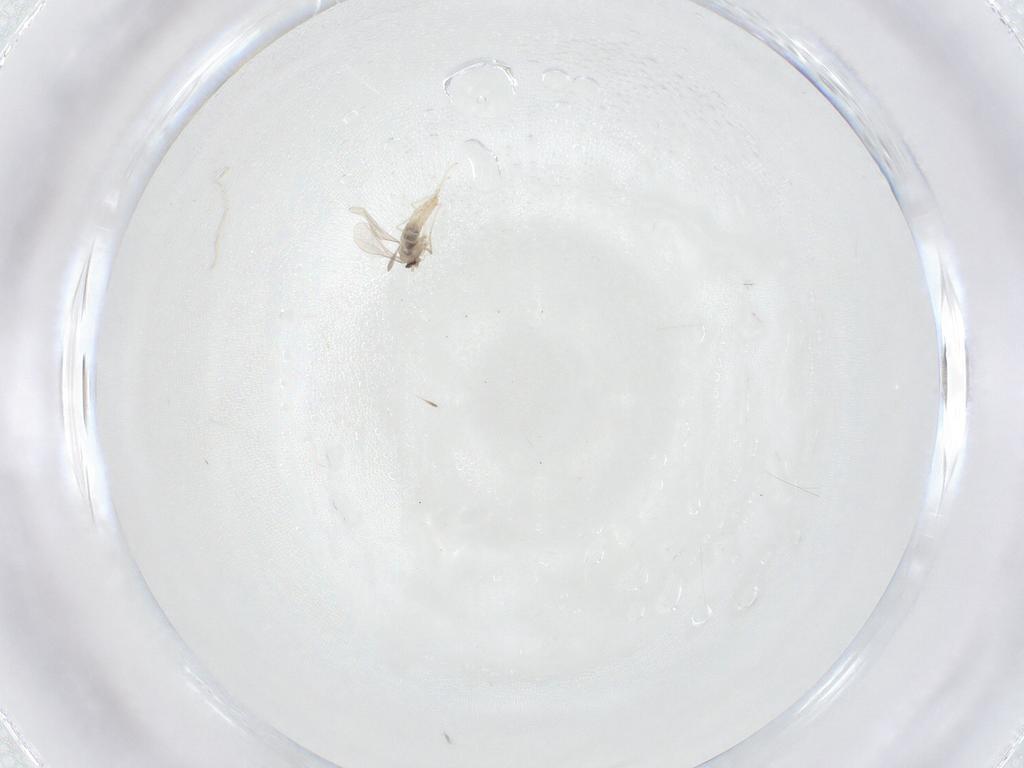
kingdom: Animalia
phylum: Arthropoda
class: Insecta
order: Diptera
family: Cecidomyiidae
